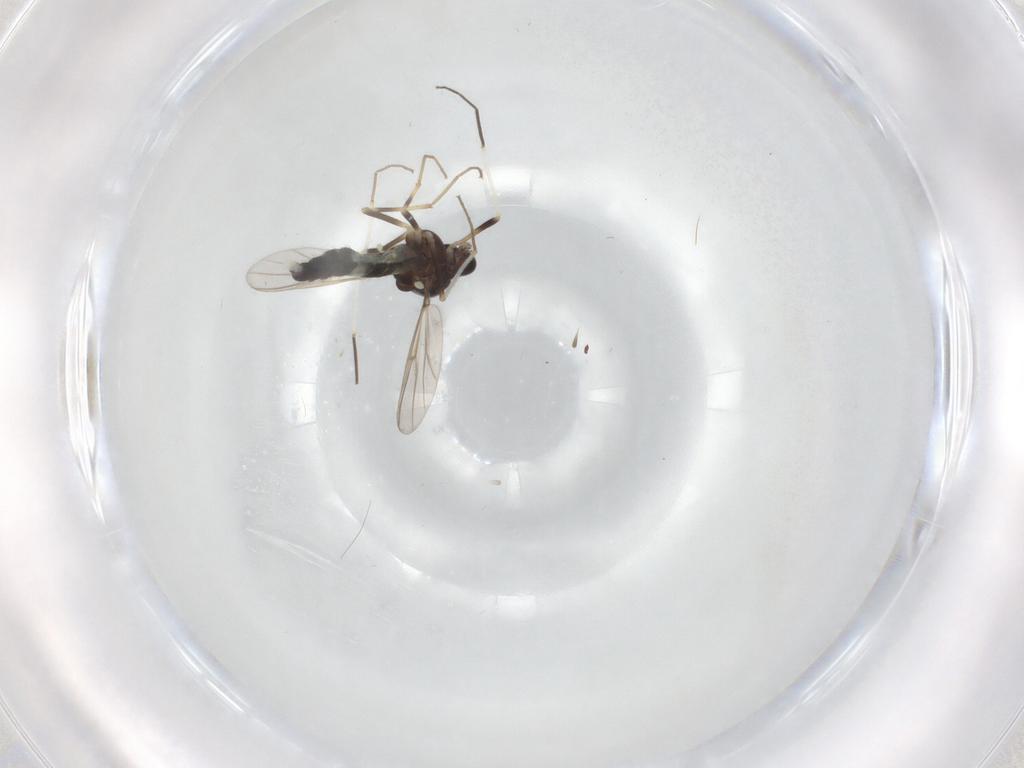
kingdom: Animalia
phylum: Arthropoda
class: Insecta
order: Diptera
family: Chironomidae
